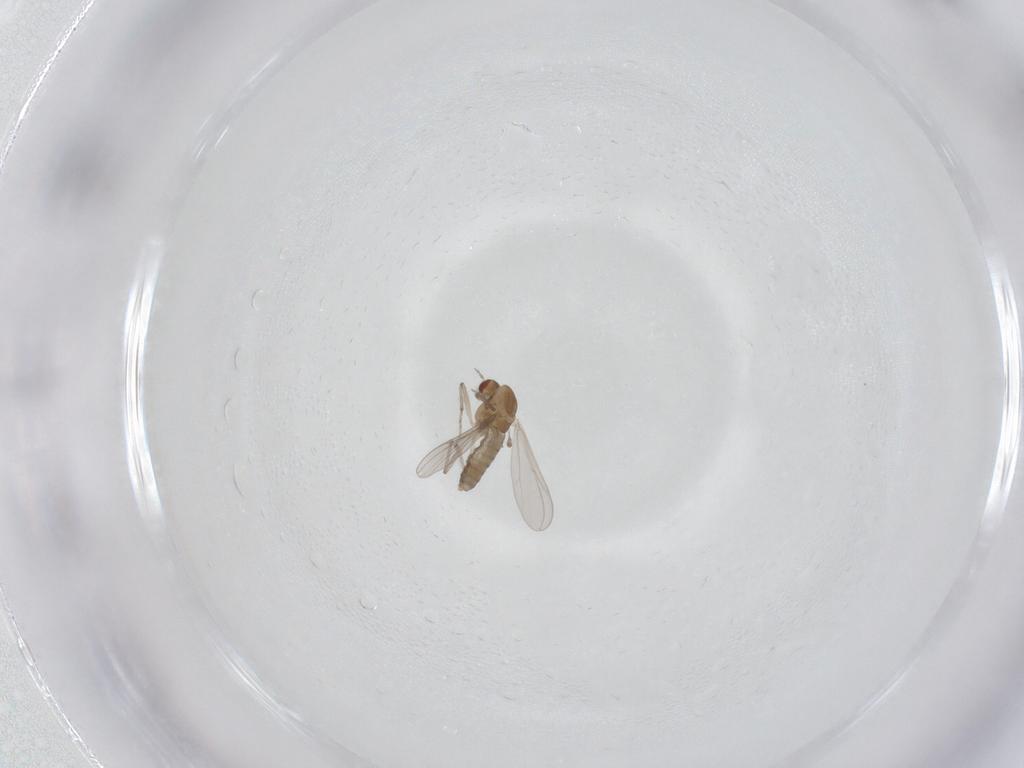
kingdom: Animalia
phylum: Arthropoda
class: Insecta
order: Diptera
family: Chironomidae
